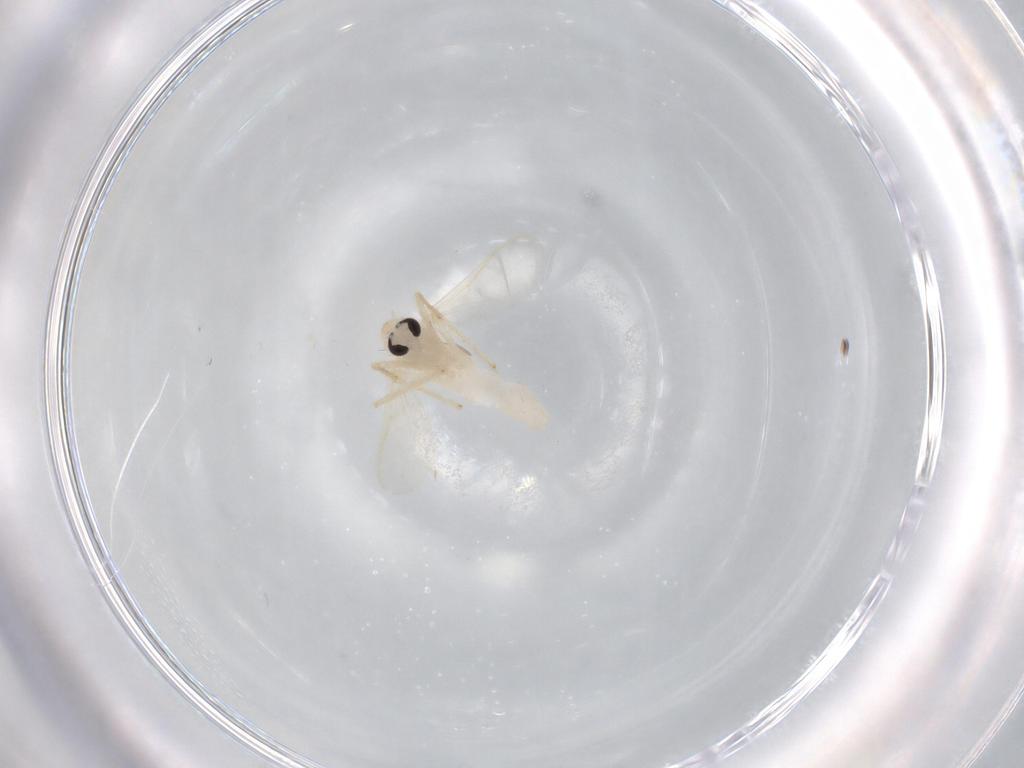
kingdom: Animalia
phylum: Arthropoda
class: Insecta
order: Diptera
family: Chironomidae
